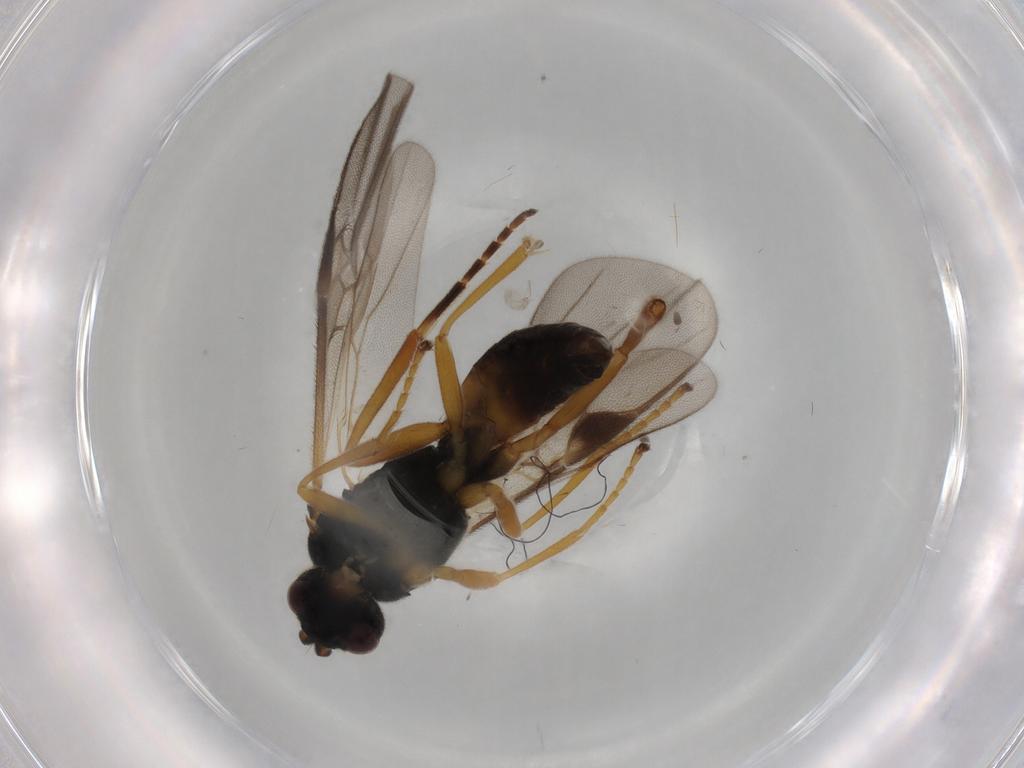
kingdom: Animalia
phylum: Arthropoda
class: Insecta
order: Hymenoptera
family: Braconidae
